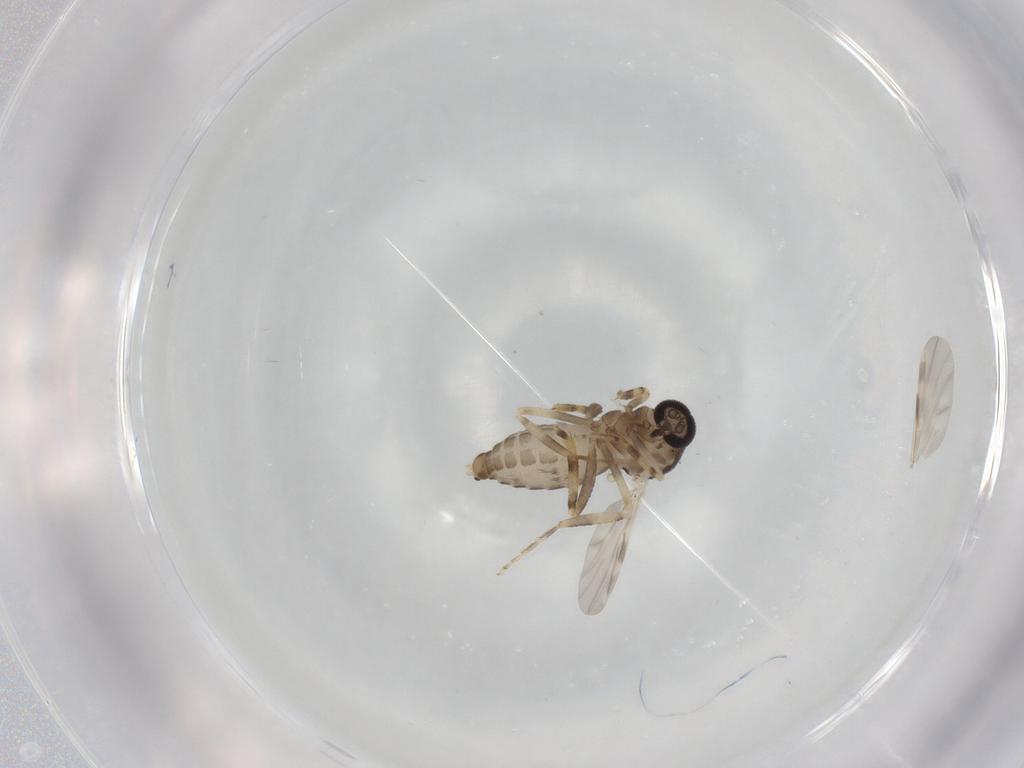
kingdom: Animalia
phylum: Arthropoda
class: Insecta
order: Diptera
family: Ceratopogonidae
